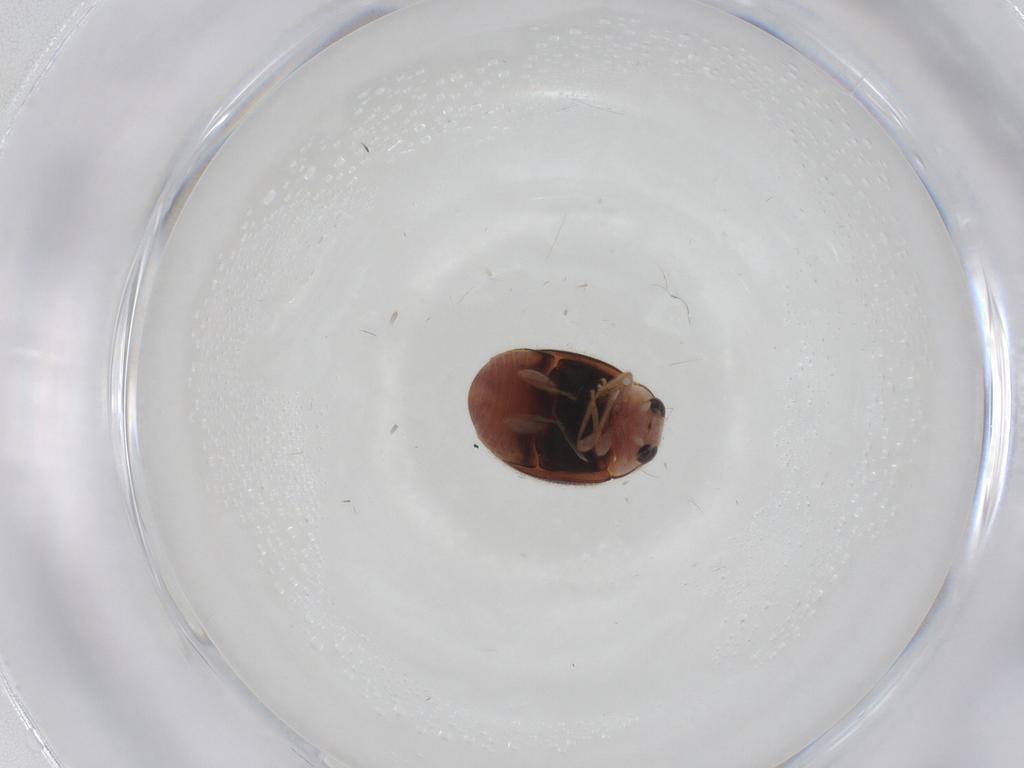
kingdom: Animalia
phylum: Arthropoda
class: Insecta
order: Coleoptera
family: Coccinellidae
